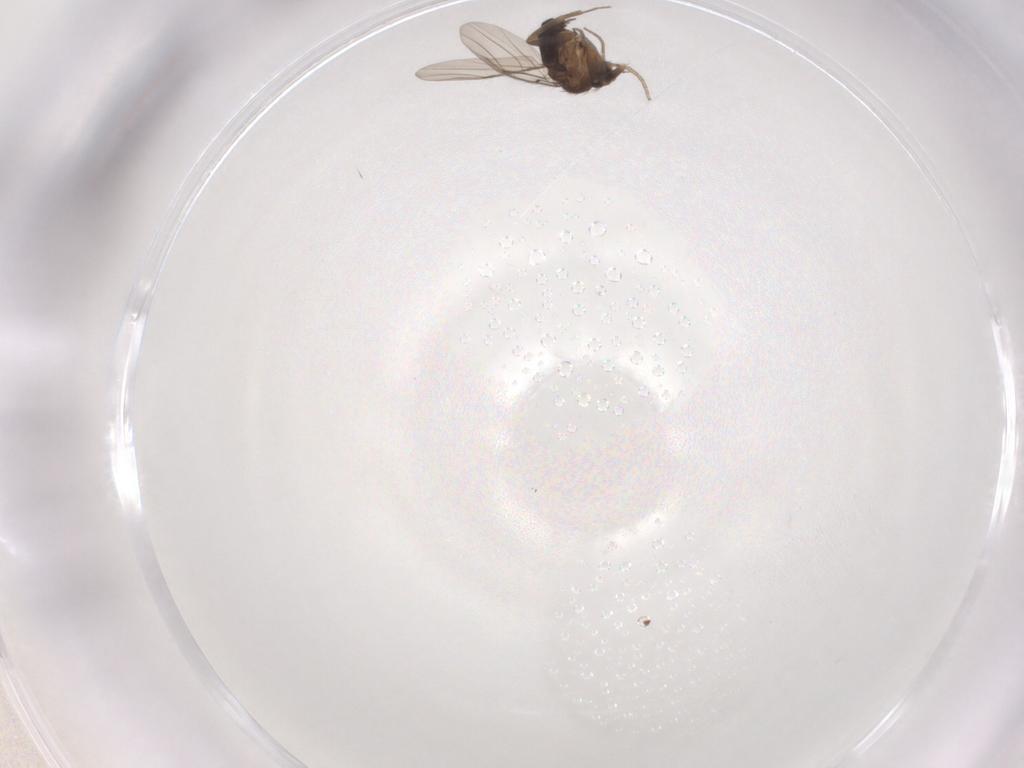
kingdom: Animalia
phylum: Arthropoda
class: Insecta
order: Diptera
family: Phoridae
